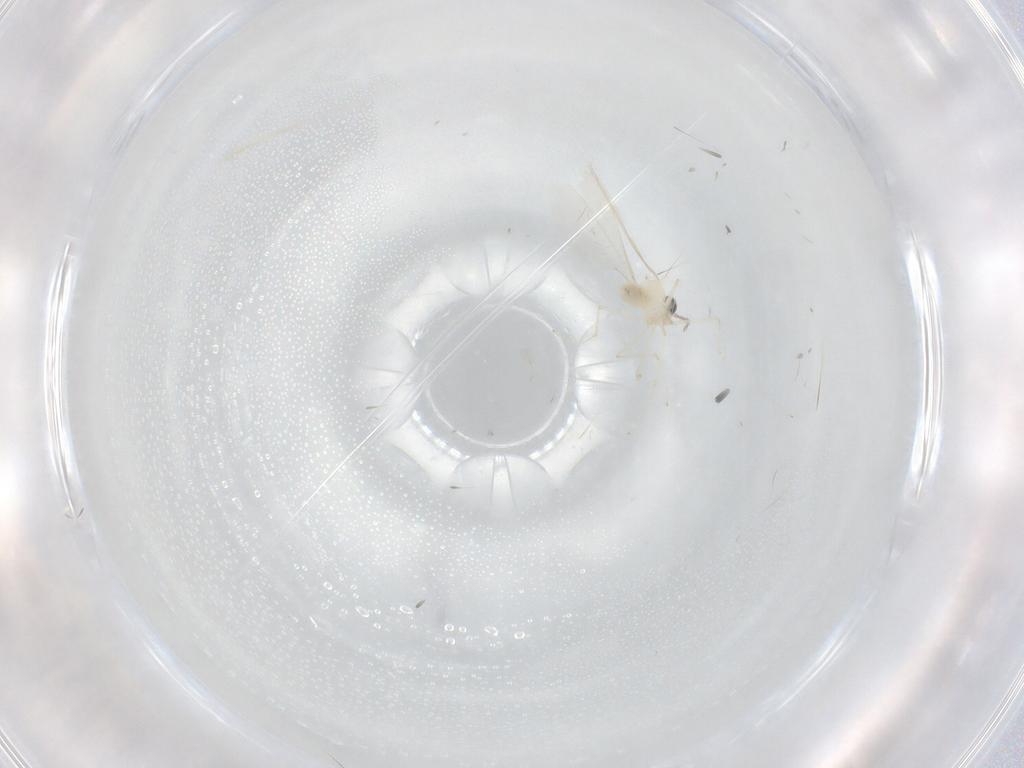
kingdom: Animalia
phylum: Arthropoda
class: Insecta
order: Diptera
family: Cecidomyiidae
